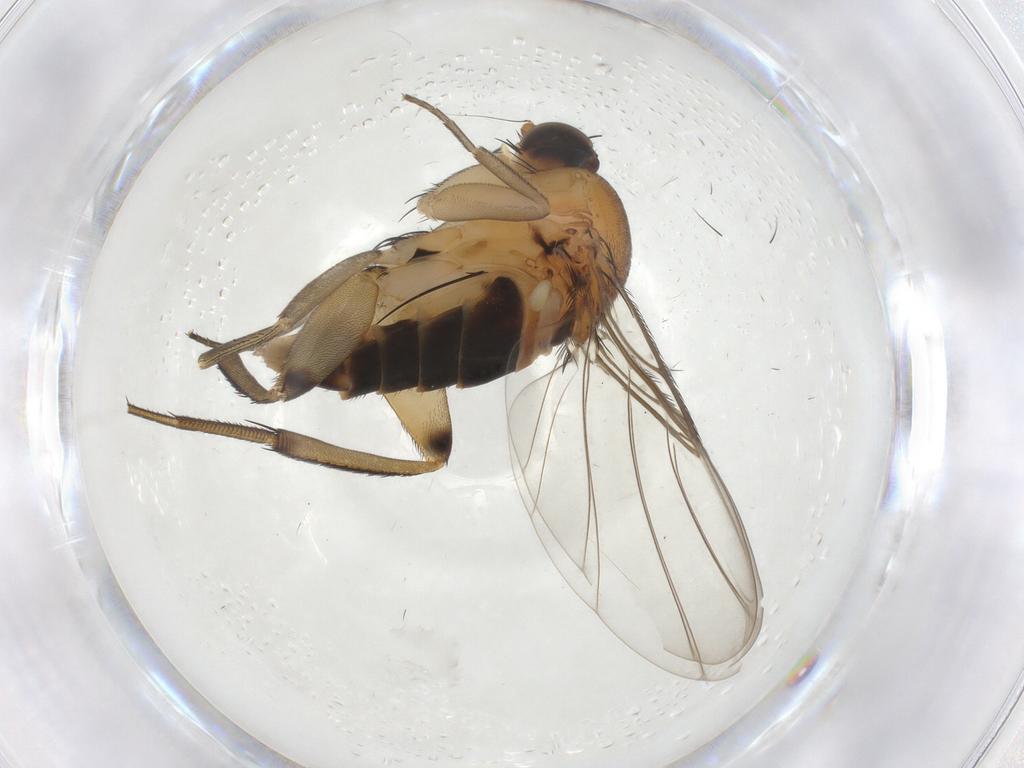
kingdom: Animalia
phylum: Arthropoda
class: Insecta
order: Diptera
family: Phoridae
